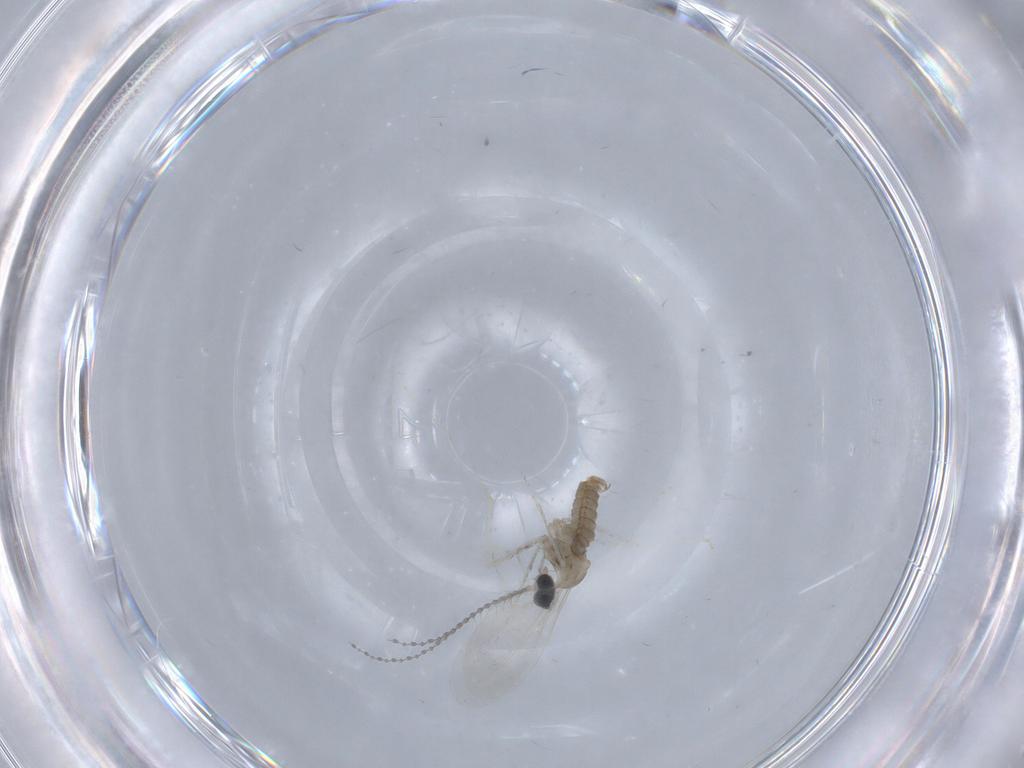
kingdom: Animalia
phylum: Arthropoda
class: Insecta
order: Diptera
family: Cecidomyiidae
